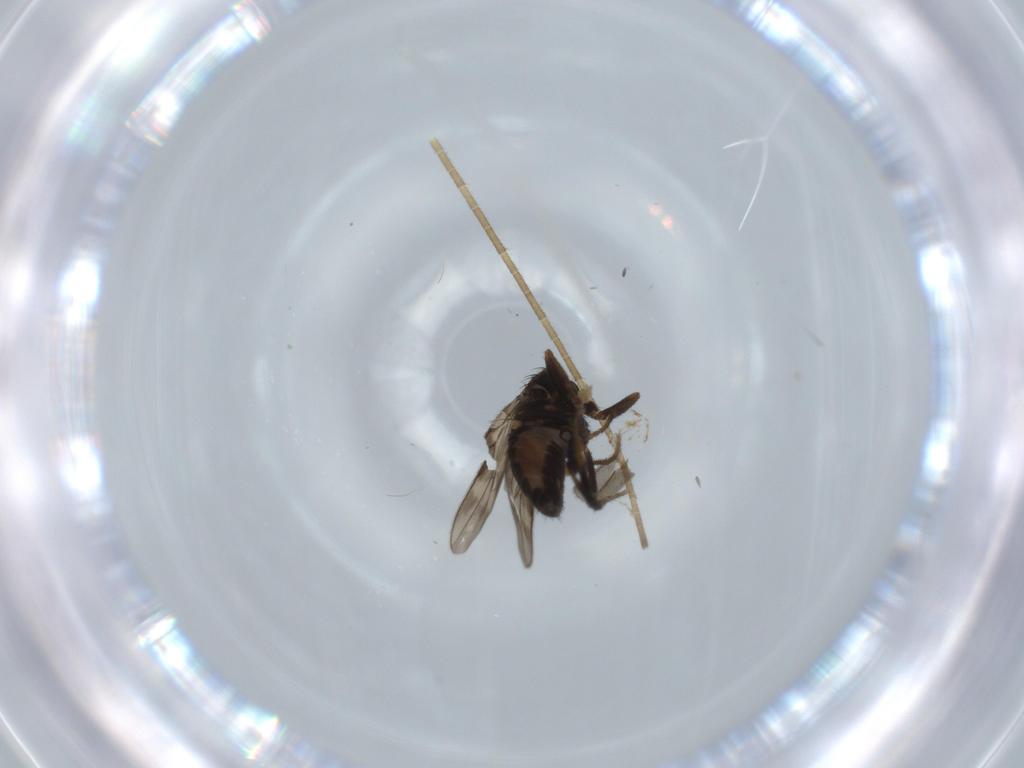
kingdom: Animalia
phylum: Arthropoda
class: Insecta
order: Diptera
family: Sphaeroceridae
